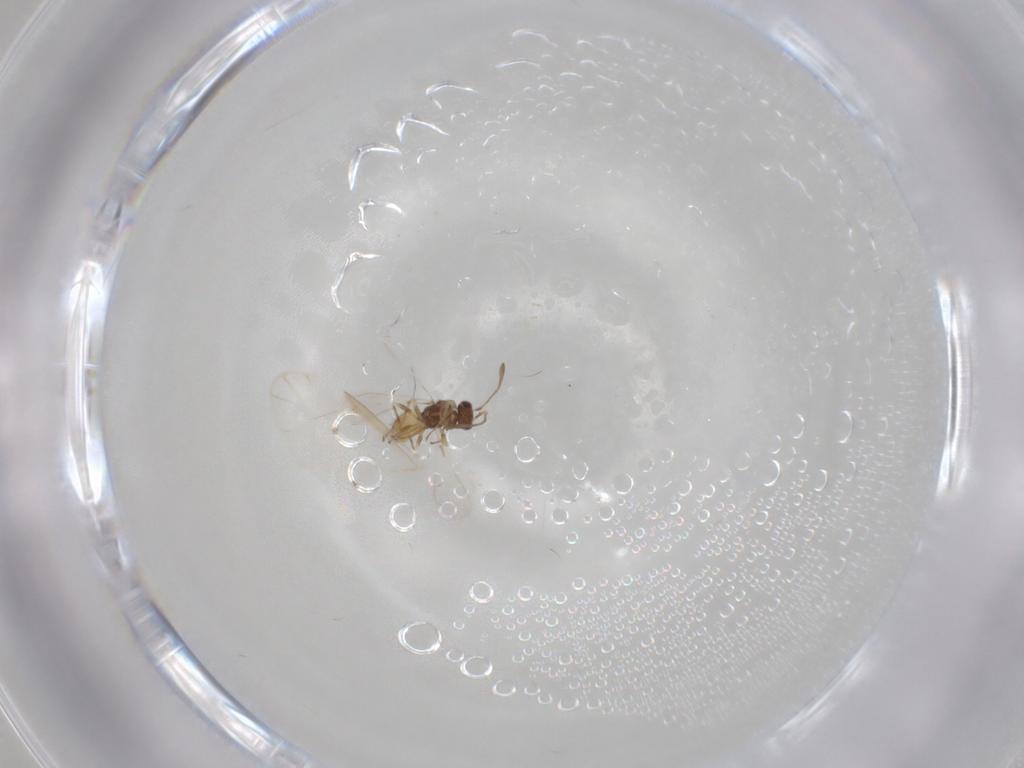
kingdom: Animalia
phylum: Arthropoda
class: Insecta
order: Hymenoptera
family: Mymaridae
